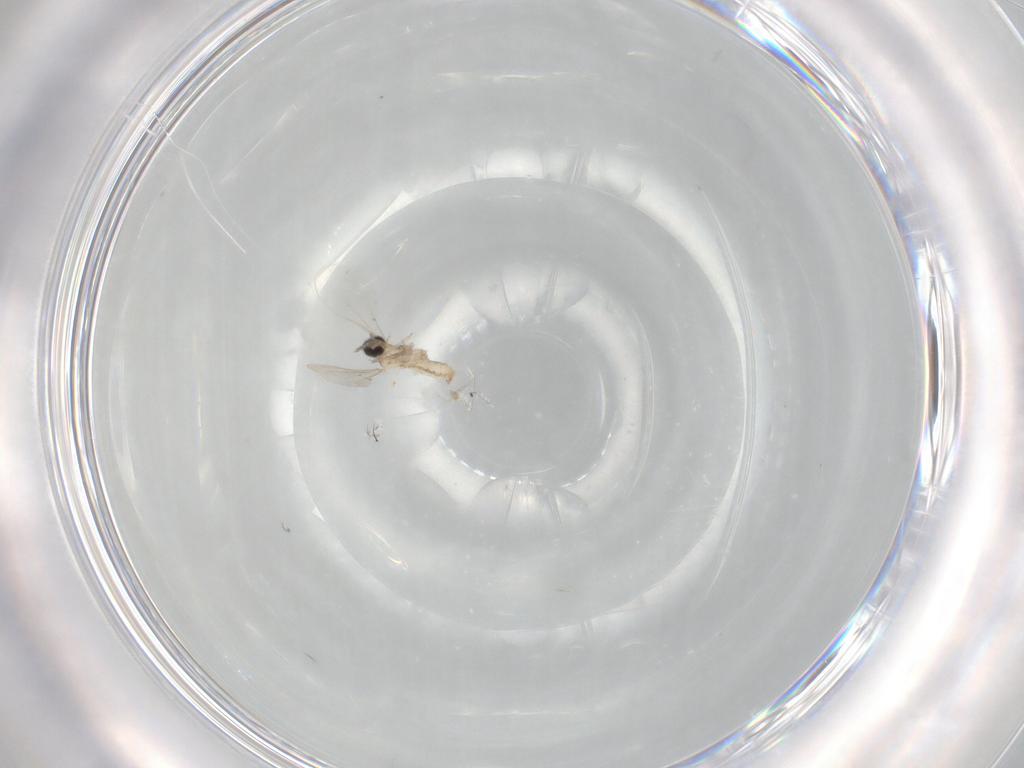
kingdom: Animalia
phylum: Arthropoda
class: Insecta
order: Diptera
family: Cecidomyiidae
